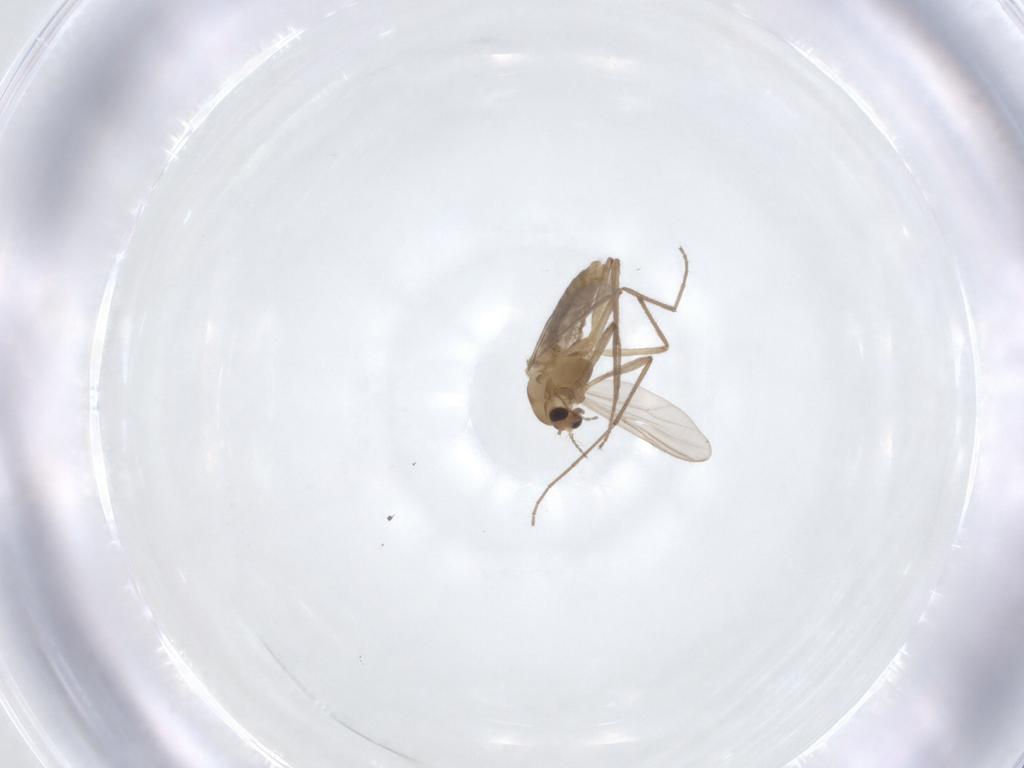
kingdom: Animalia
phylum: Arthropoda
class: Insecta
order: Diptera
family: Chironomidae
